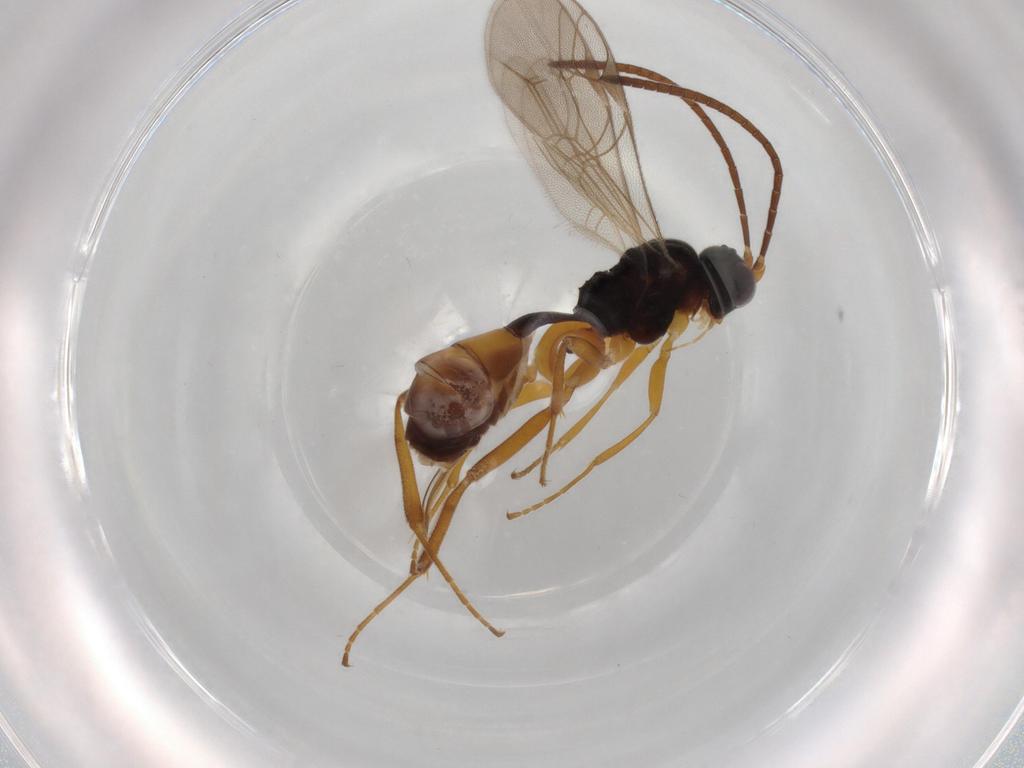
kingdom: Animalia
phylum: Arthropoda
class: Insecta
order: Hymenoptera
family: Ichneumonidae
